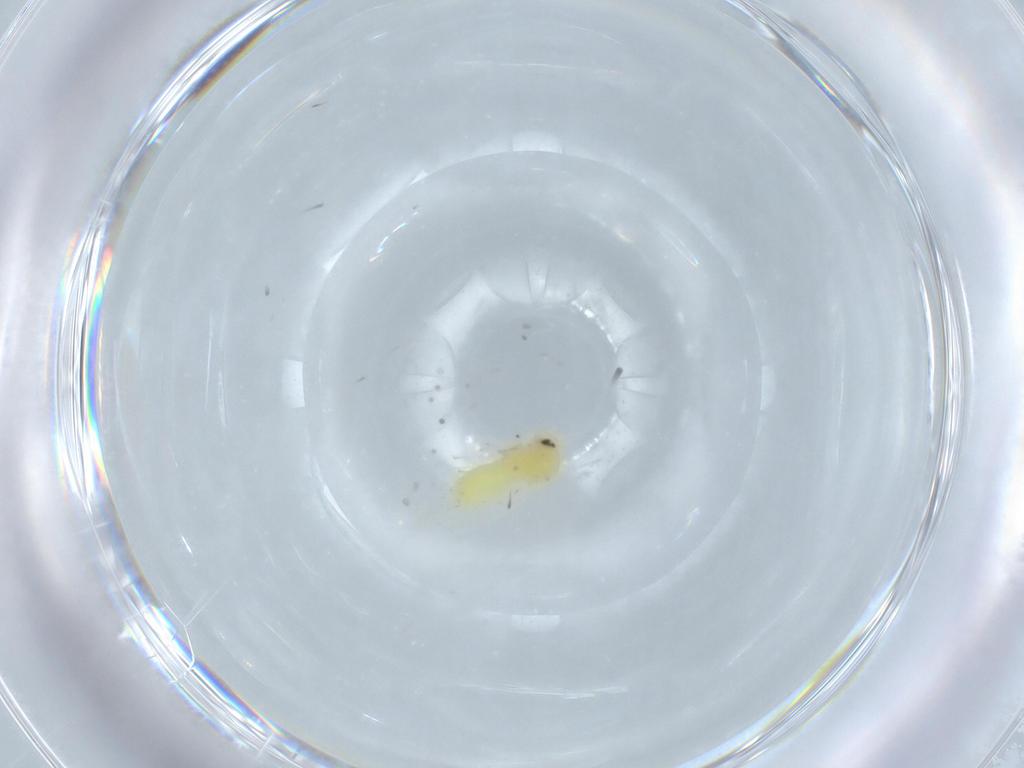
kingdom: Animalia
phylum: Arthropoda
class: Insecta
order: Hemiptera
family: Aleyrodidae
